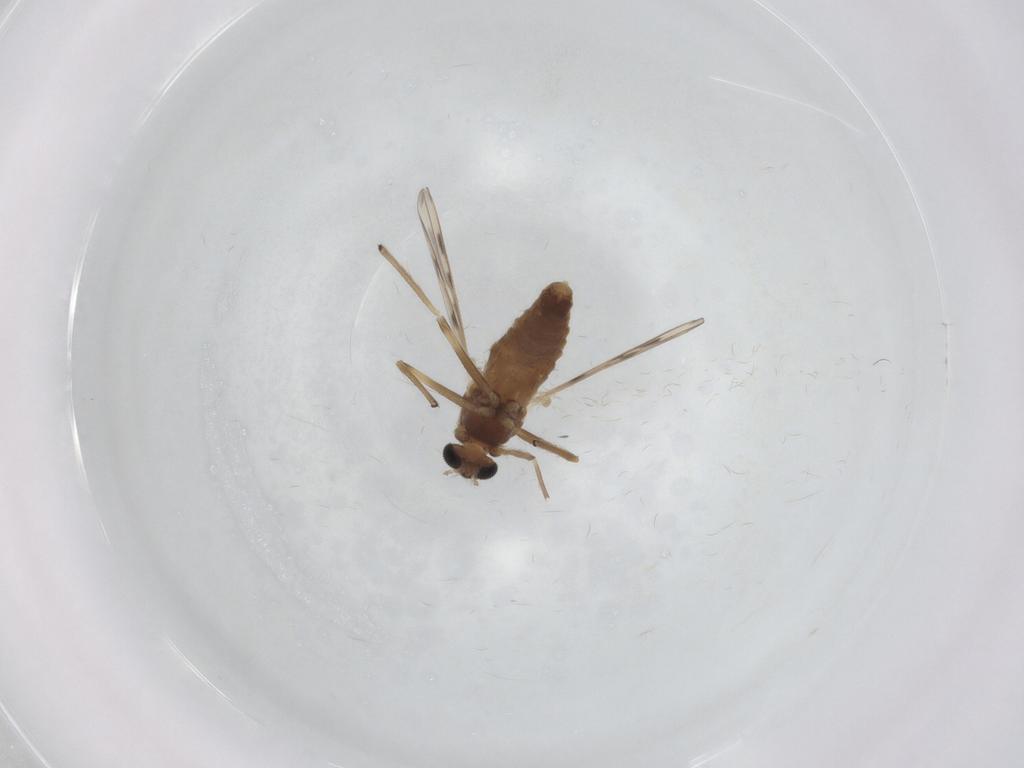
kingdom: Animalia
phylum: Arthropoda
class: Insecta
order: Diptera
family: Chironomidae
